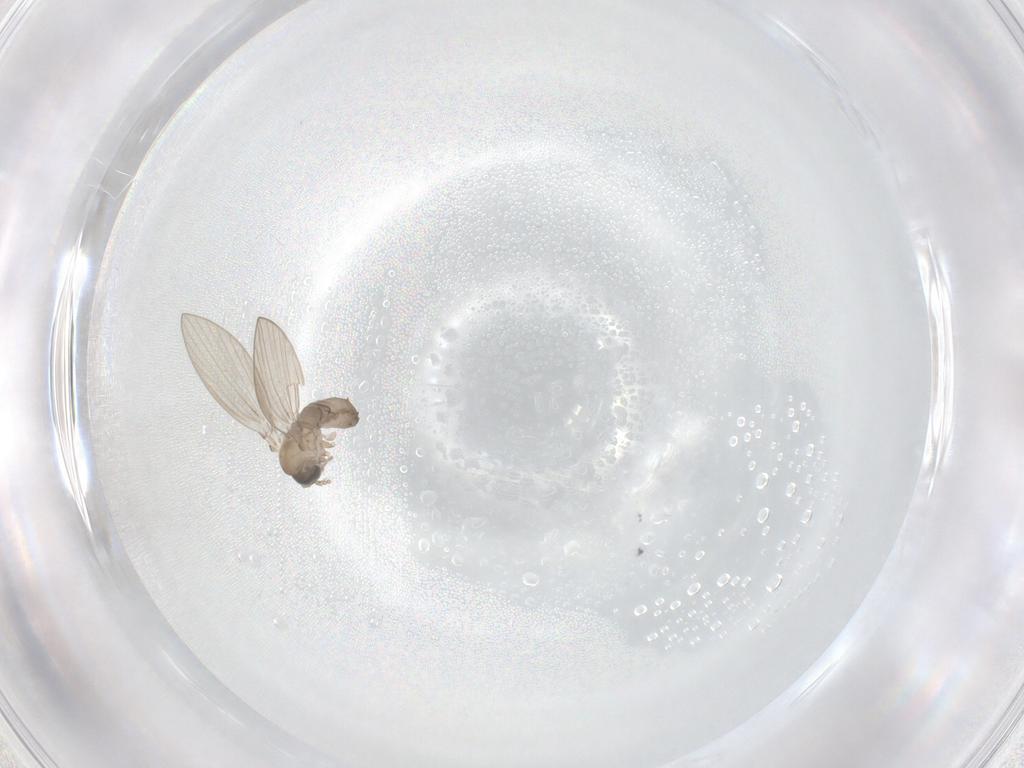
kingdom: Animalia
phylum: Arthropoda
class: Insecta
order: Diptera
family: Psychodidae
